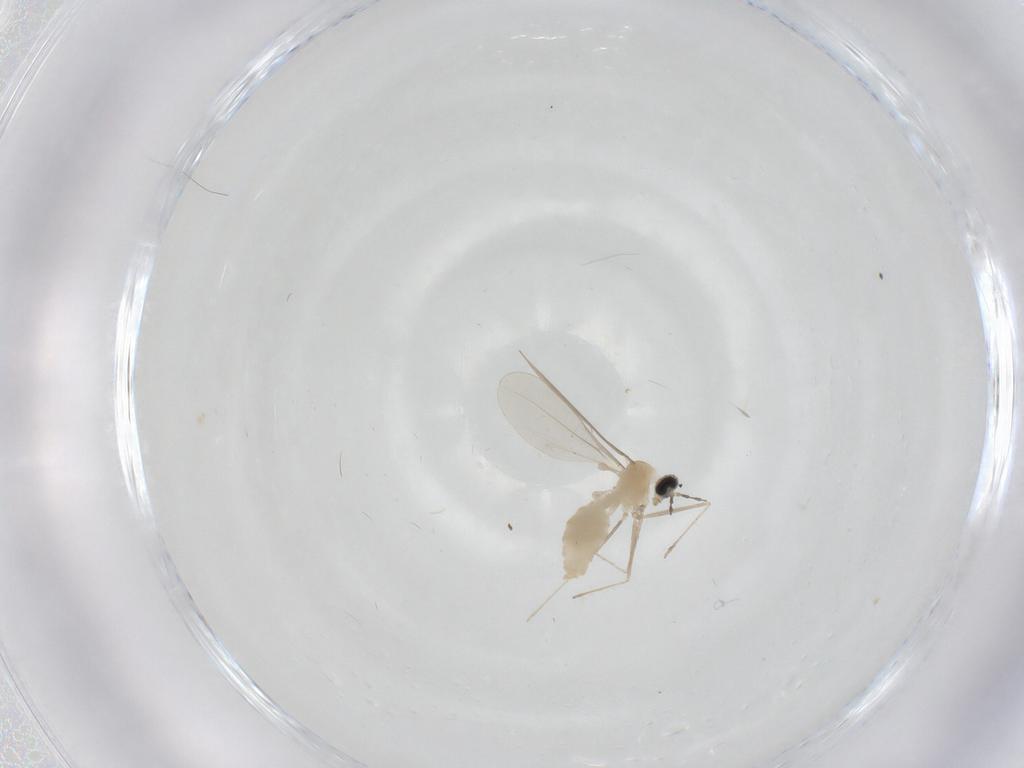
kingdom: Animalia
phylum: Arthropoda
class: Insecta
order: Diptera
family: Cecidomyiidae
